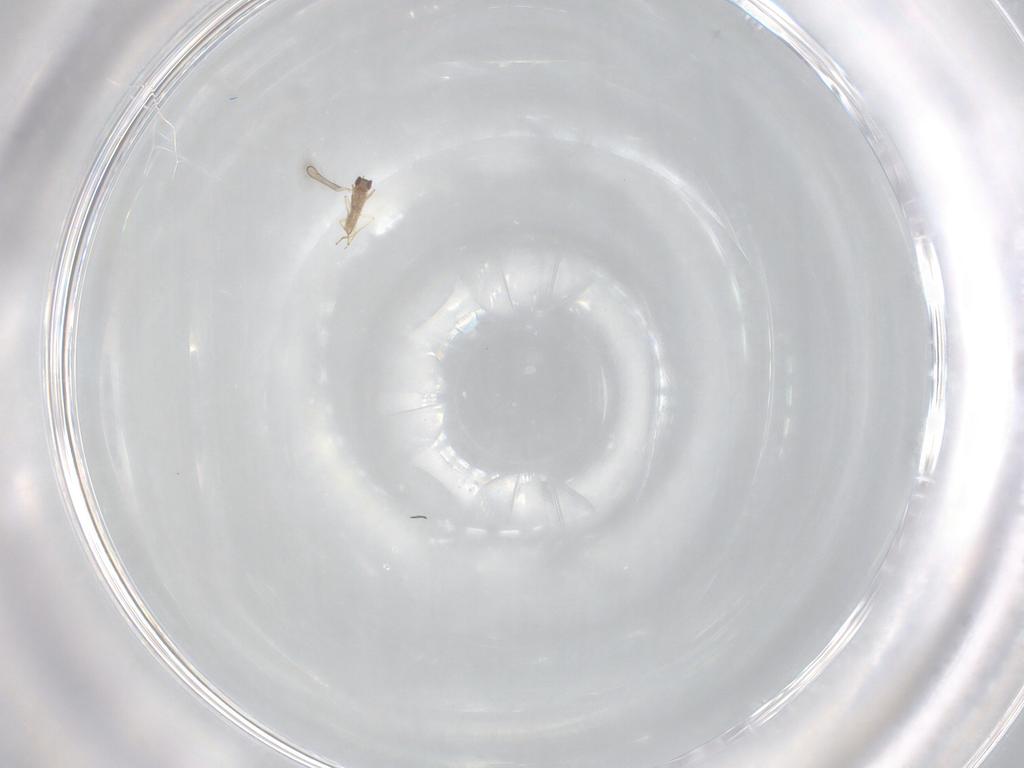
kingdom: Animalia
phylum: Arthropoda
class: Insecta
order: Hymenoptera
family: Mymaridae
